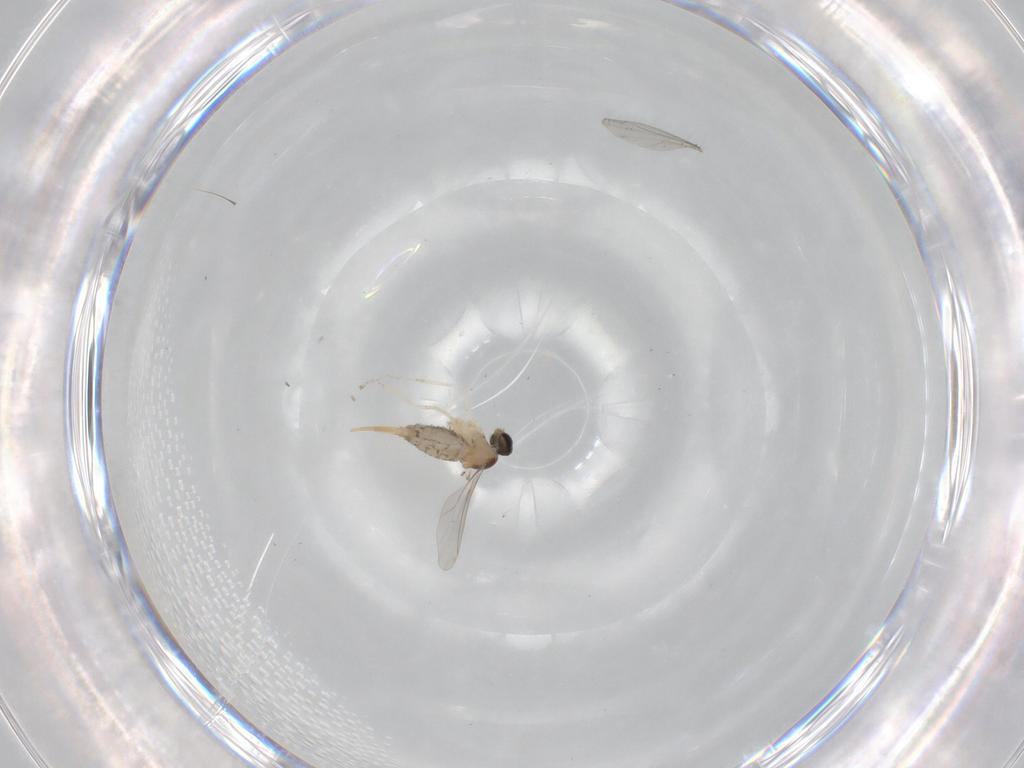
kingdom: Animalia
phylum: Arthropoda
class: Insecta
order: Diptera
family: Cecidomyiidae
